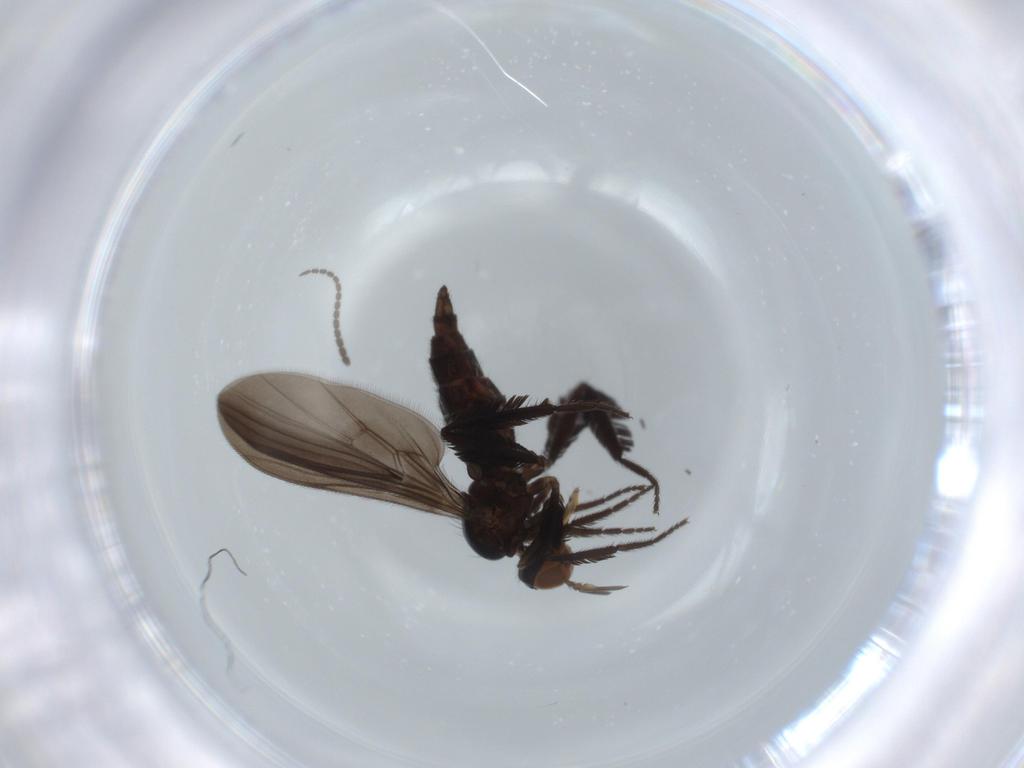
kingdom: Animalia
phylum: Arthropoda
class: Insecta
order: Diptera
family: Empididae
